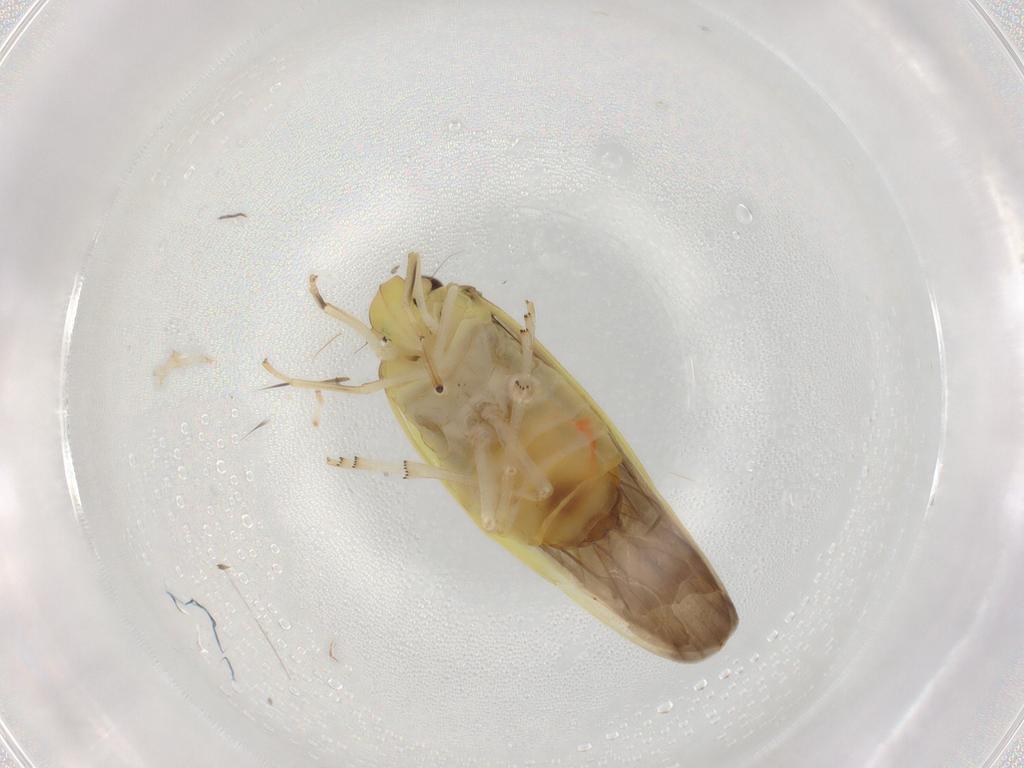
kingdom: Animalia
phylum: Arthropoda
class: Insecta
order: Hemiptera
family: Achilidae
